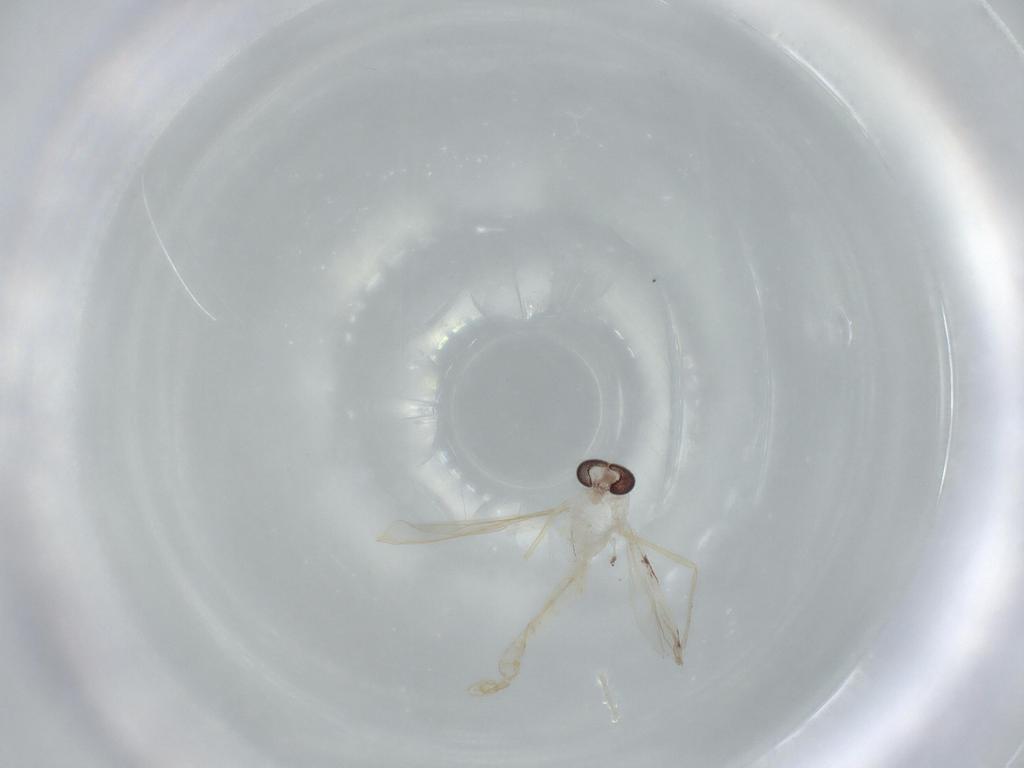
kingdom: Animalia
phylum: Arthropoda
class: Insecta
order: Diptera
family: Chironomidae
